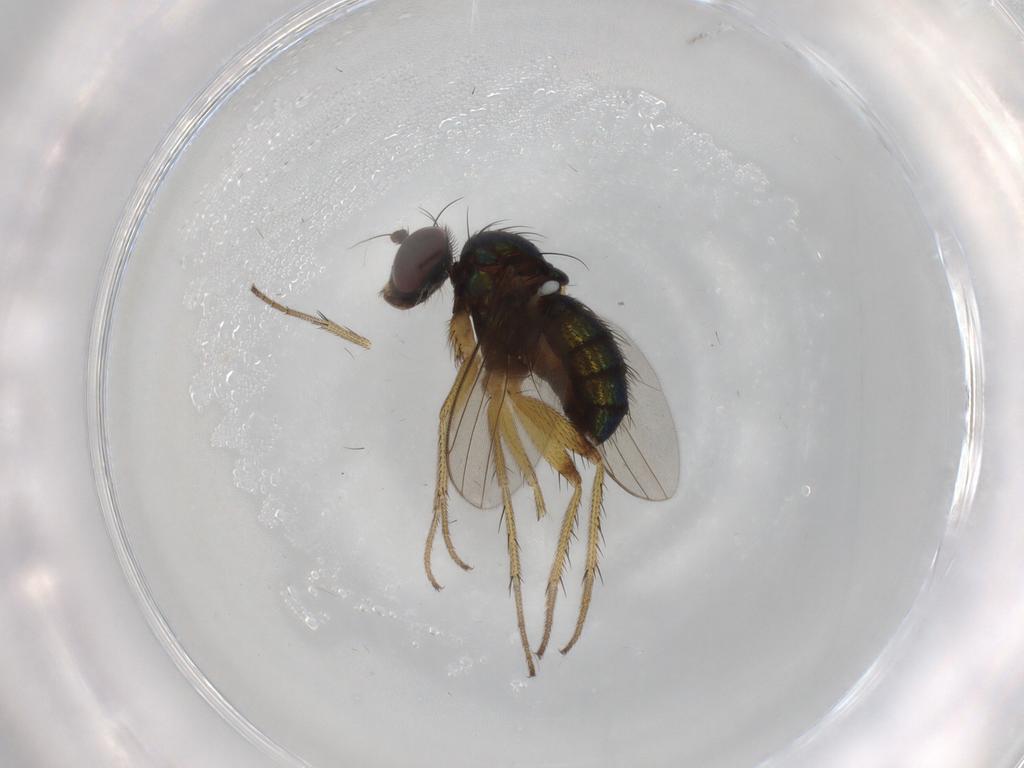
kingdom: Animalia
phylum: Arthropoda
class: Insecta
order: Diptera
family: Dolichopodidae
